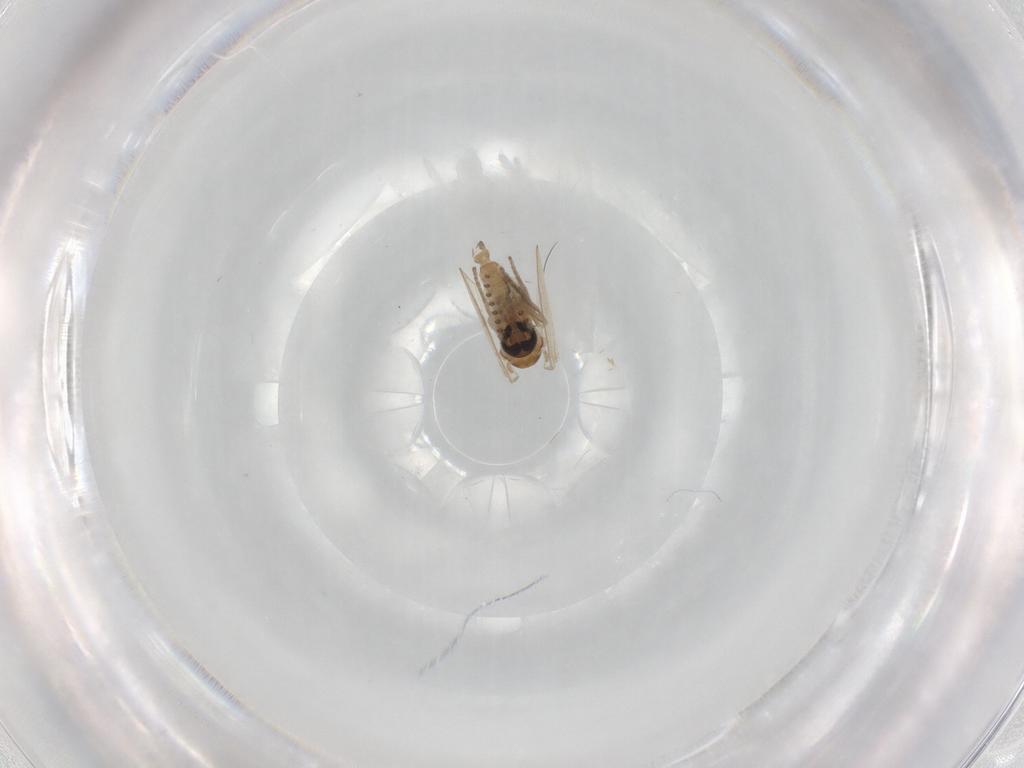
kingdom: Animalia
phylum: Arthropoda
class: Insecta
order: Diptera
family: Psychodidae
